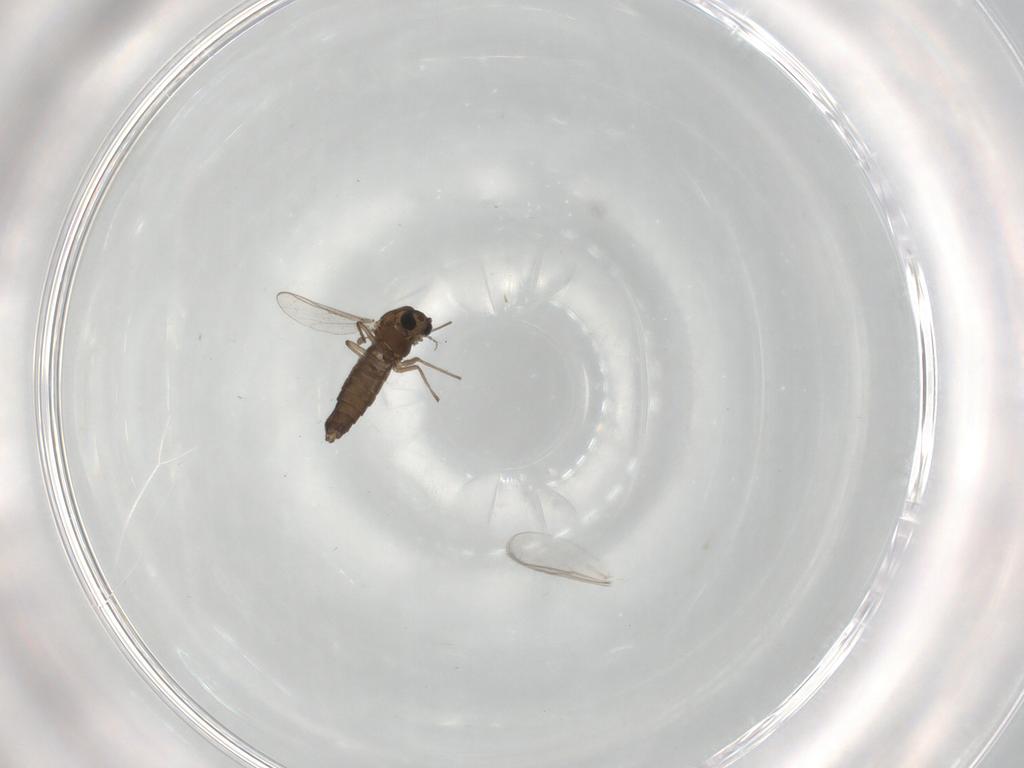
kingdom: Animalia
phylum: Arthropoda
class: Insecta
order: Diptera
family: Chironomidae
